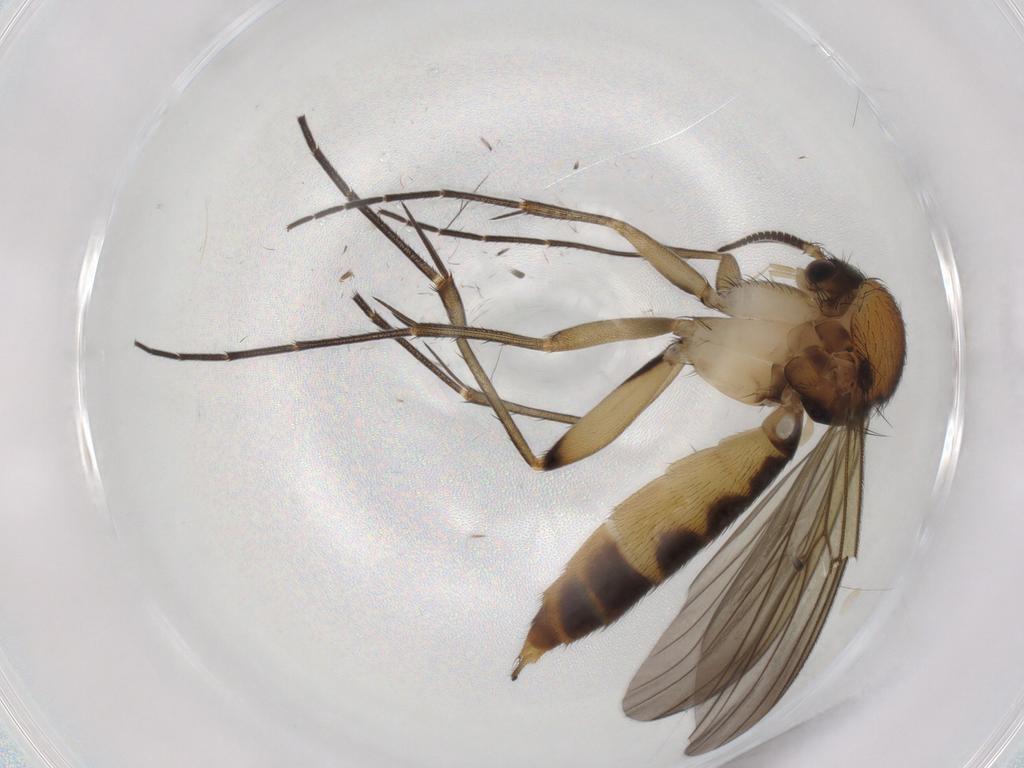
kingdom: Animalia
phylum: Arthropoda
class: Insecta
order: Diptera
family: Mycetophilidae
